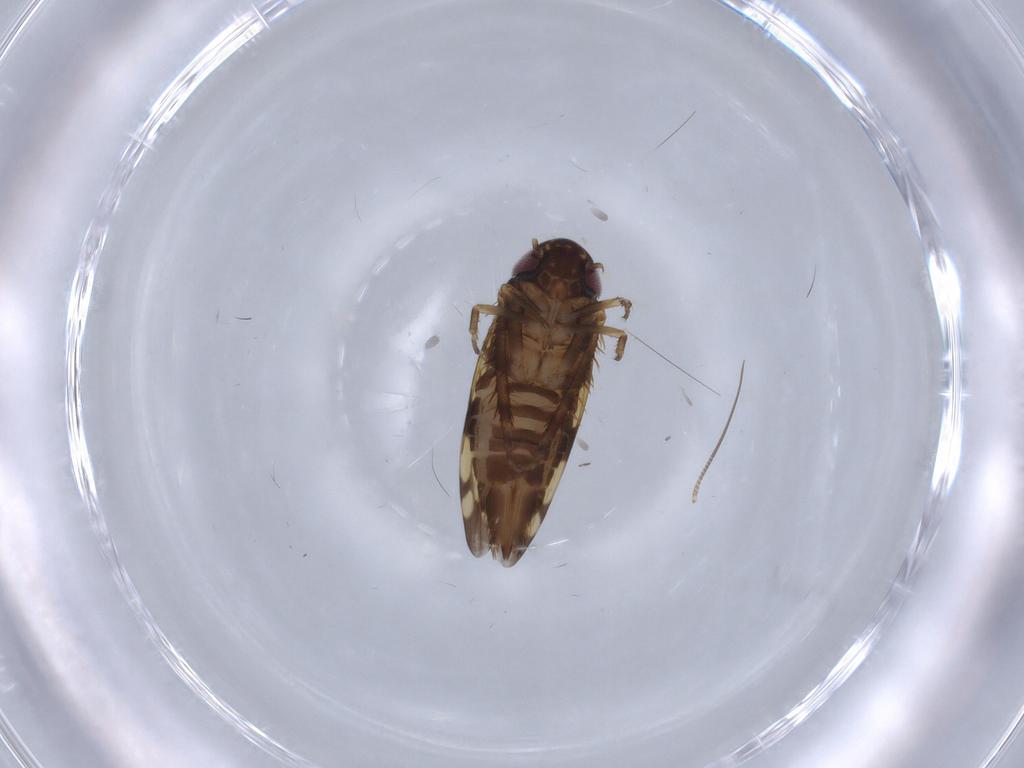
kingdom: Animalia
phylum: Arthropoda
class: Insecta
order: Hemiptera
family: Cicadellidae
